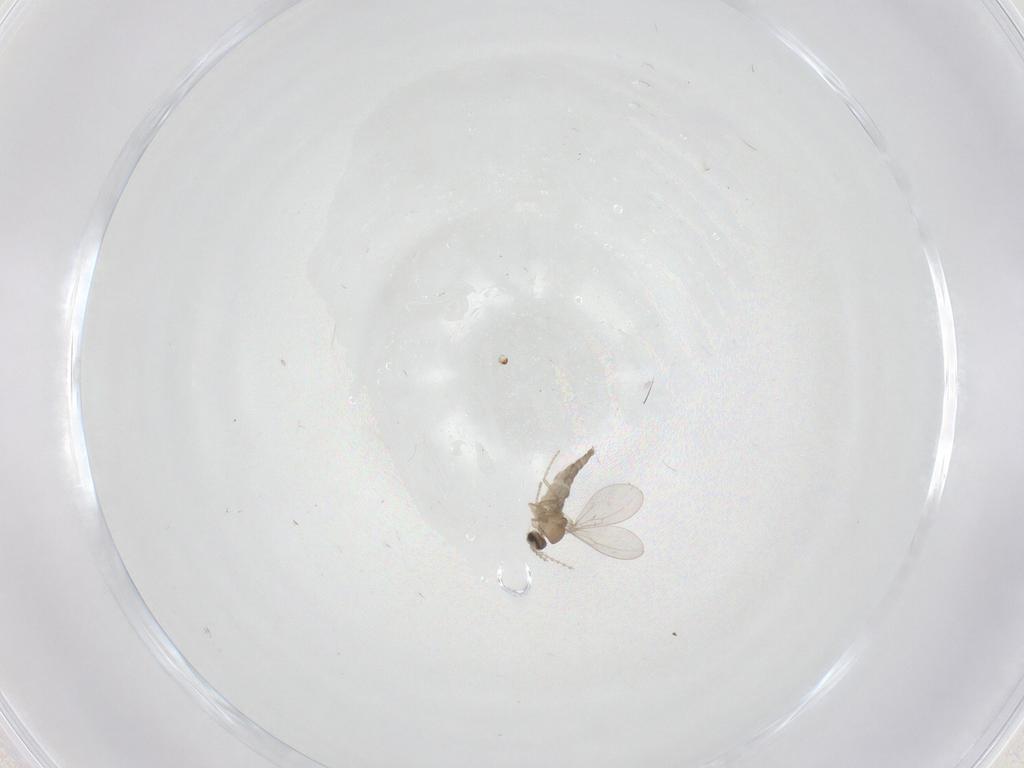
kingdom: Animalia
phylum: Arthropoda
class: Insecta
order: Diptera
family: Cecidomyiidae
